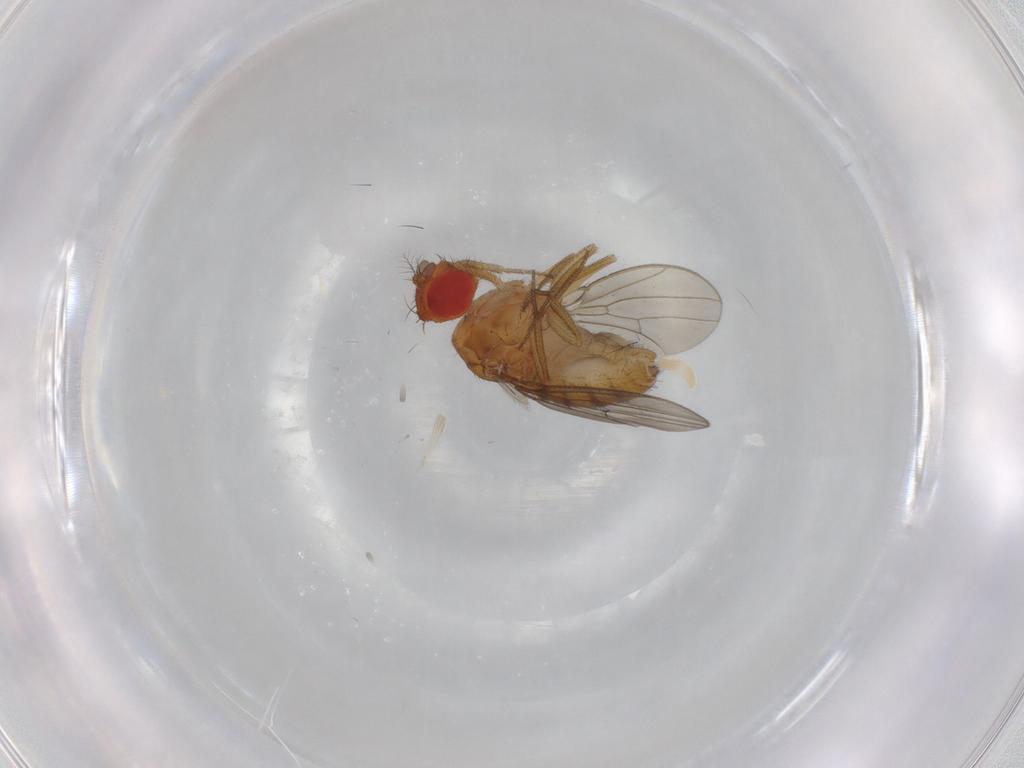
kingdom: Animalia
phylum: Arthropoda
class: Insecta
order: Diptera
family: Drosophilidae
